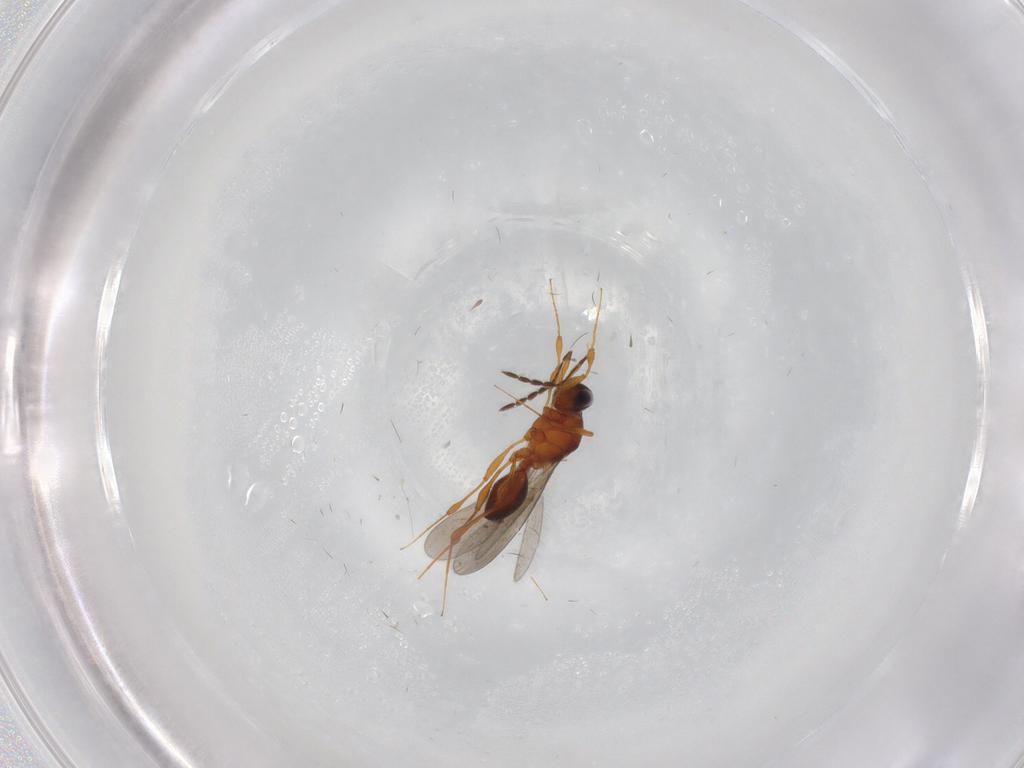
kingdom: Animalia
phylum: Arthropoda
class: Insecta
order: Hymenoptera
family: Platygastridae
